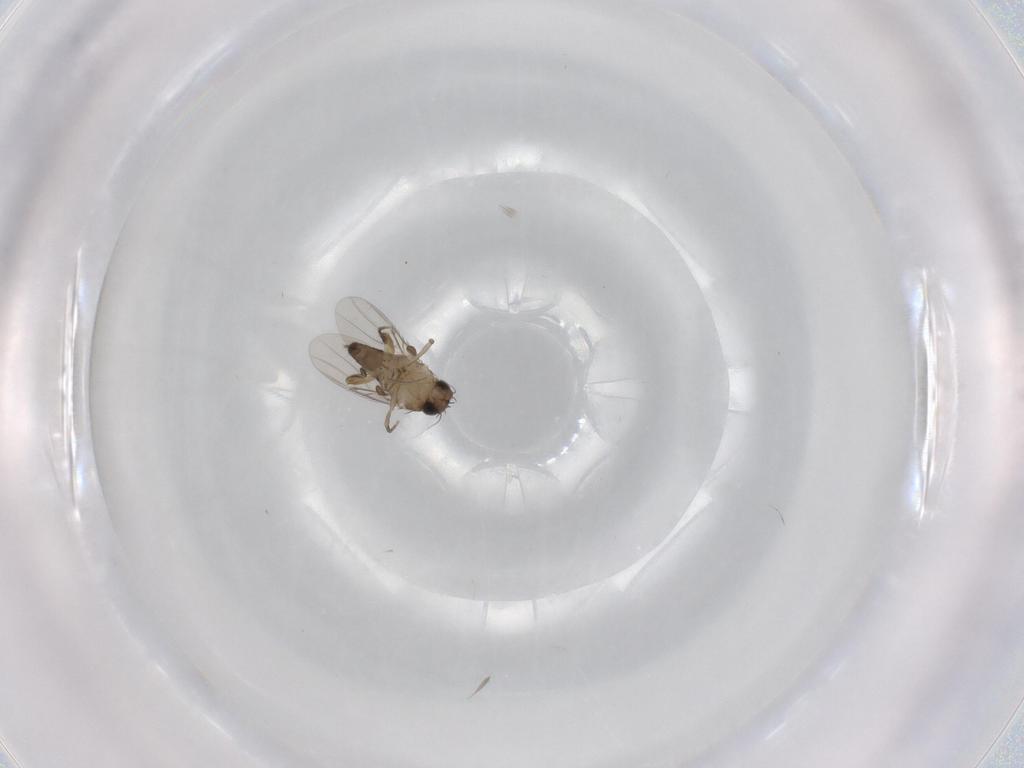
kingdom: Animalia
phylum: Arthropoda
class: Insecta
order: Diptera
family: Phoridae
